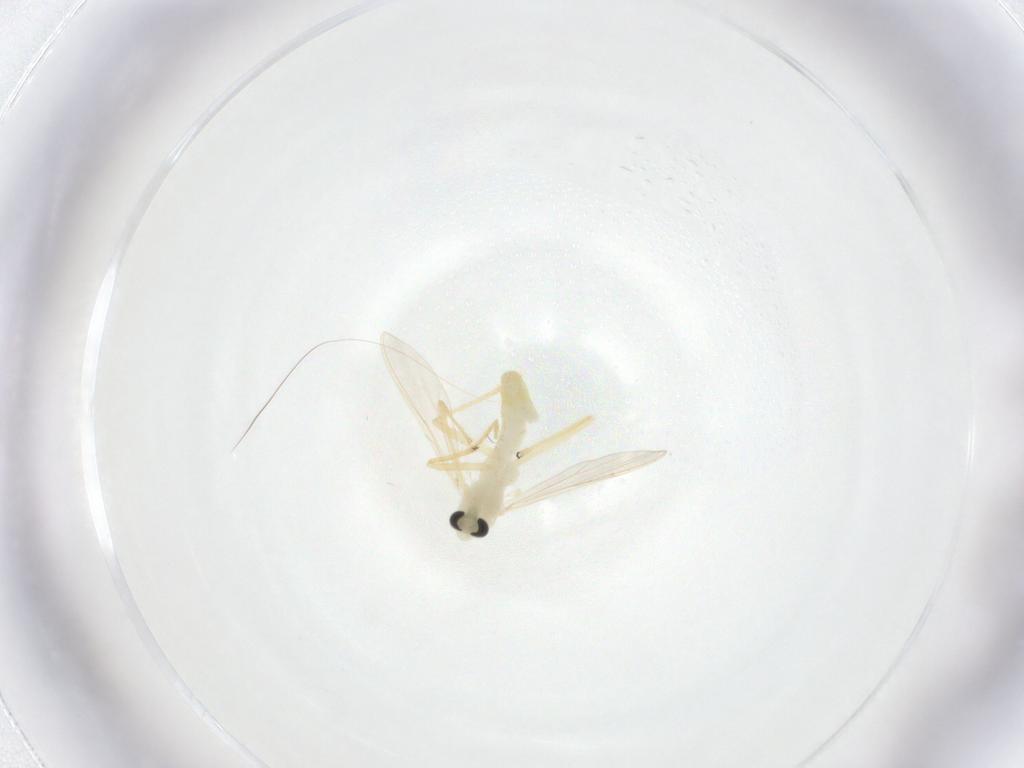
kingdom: Animalia
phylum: Arthropoda
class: Insecta
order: Diptera
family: Chironomidae
